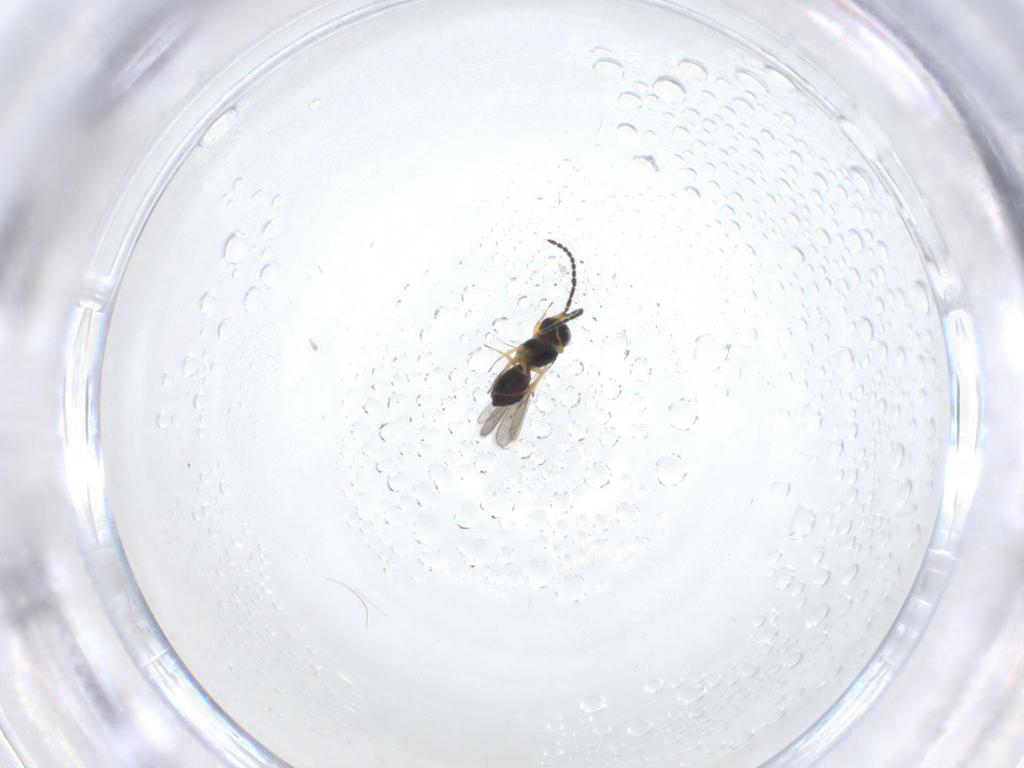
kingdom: Animalia
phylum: Arthropoda
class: Insecta
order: Hymenoptera
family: Scelionidae
